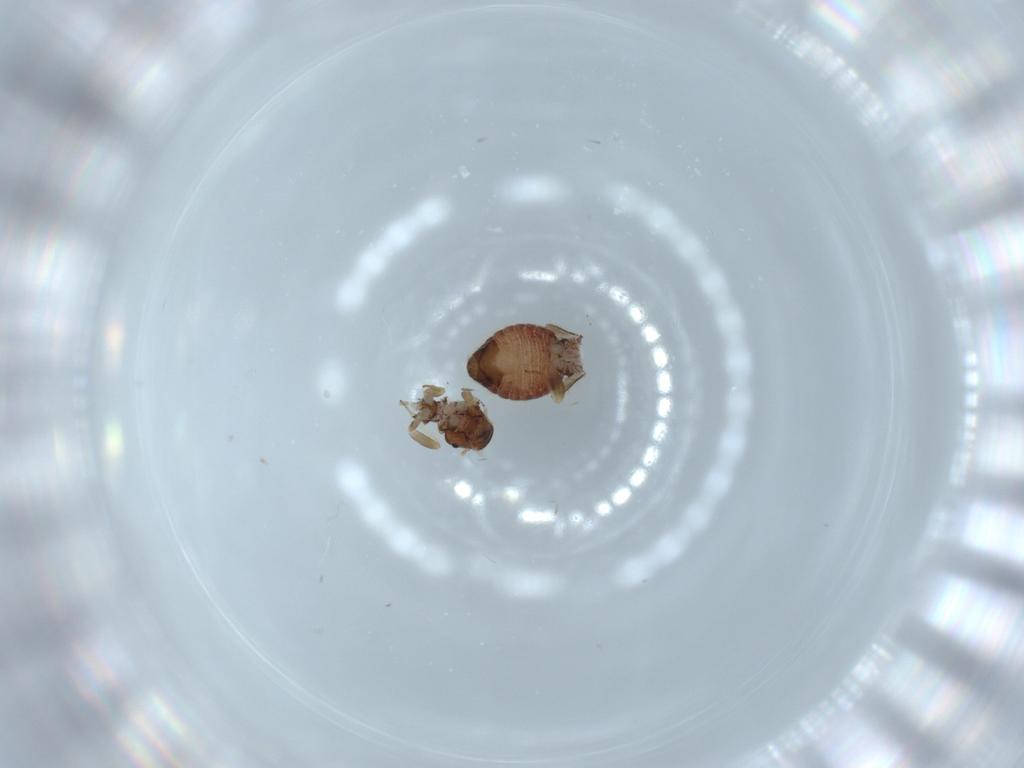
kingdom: Animalia
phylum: Arthropoda
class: Insecta
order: Psocodea
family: Archipsocidae
